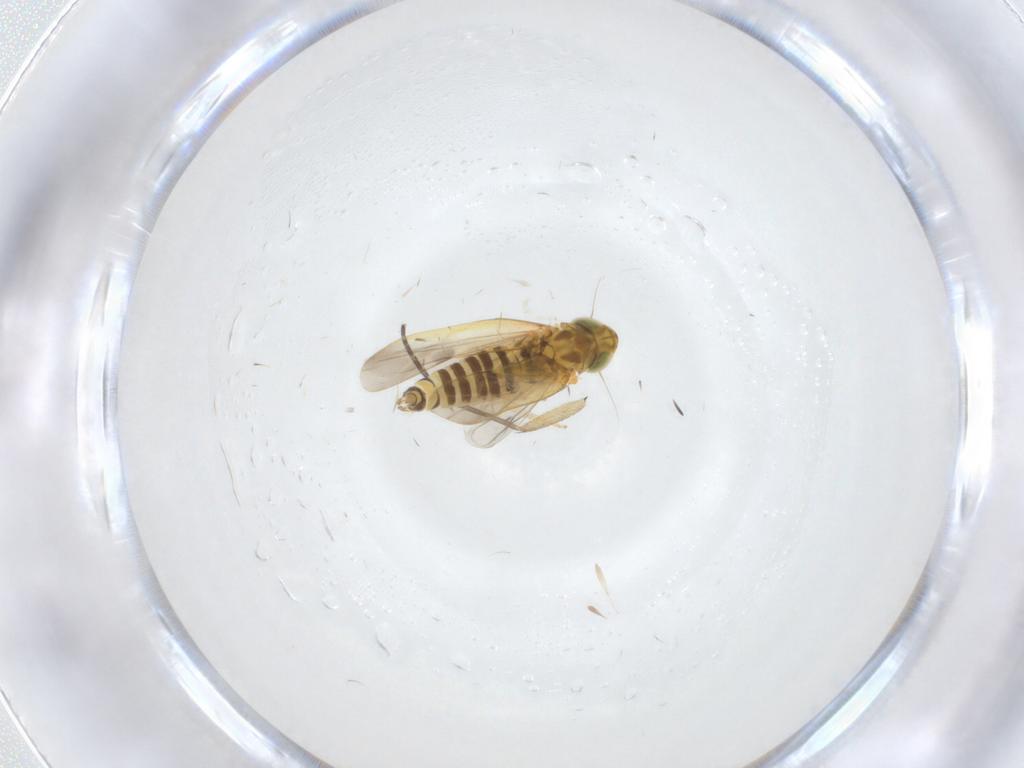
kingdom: Animalia
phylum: Arthropoda
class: Insecta
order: Hemiptera
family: Cicadellidae
